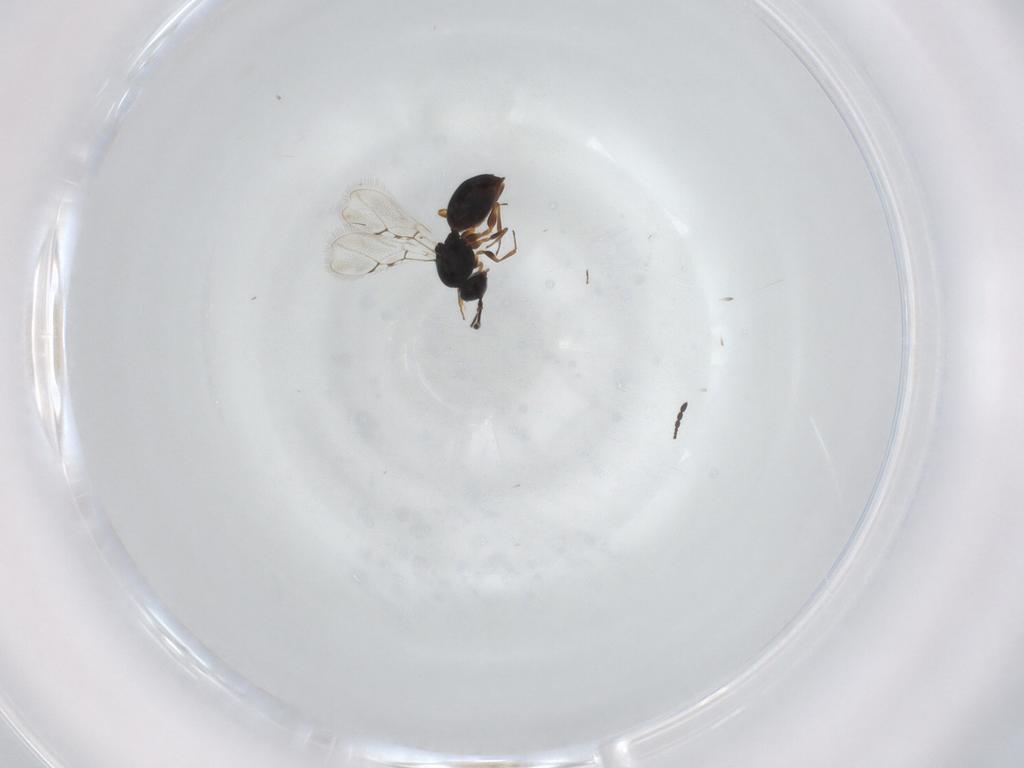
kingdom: Animalia
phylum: Arthropoda
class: Insecta
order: Hymenoptera
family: Figitidae
